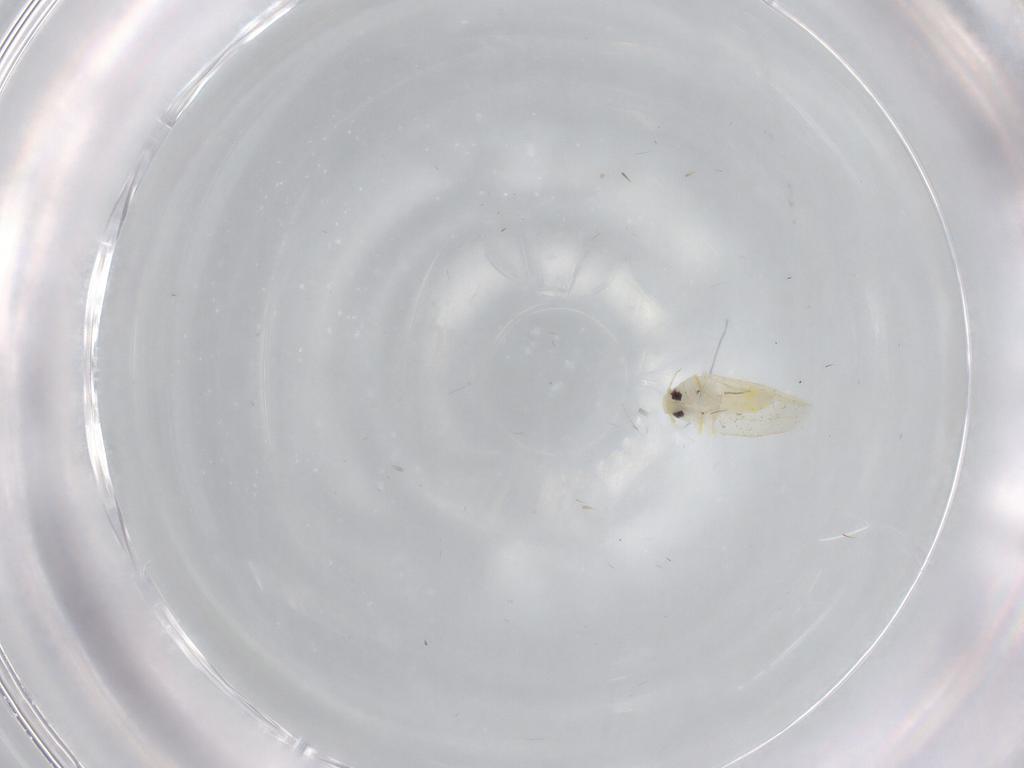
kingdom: Animalia
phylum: Arthropoda
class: Insecta
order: Hemiptera
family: Aleyrodidae
